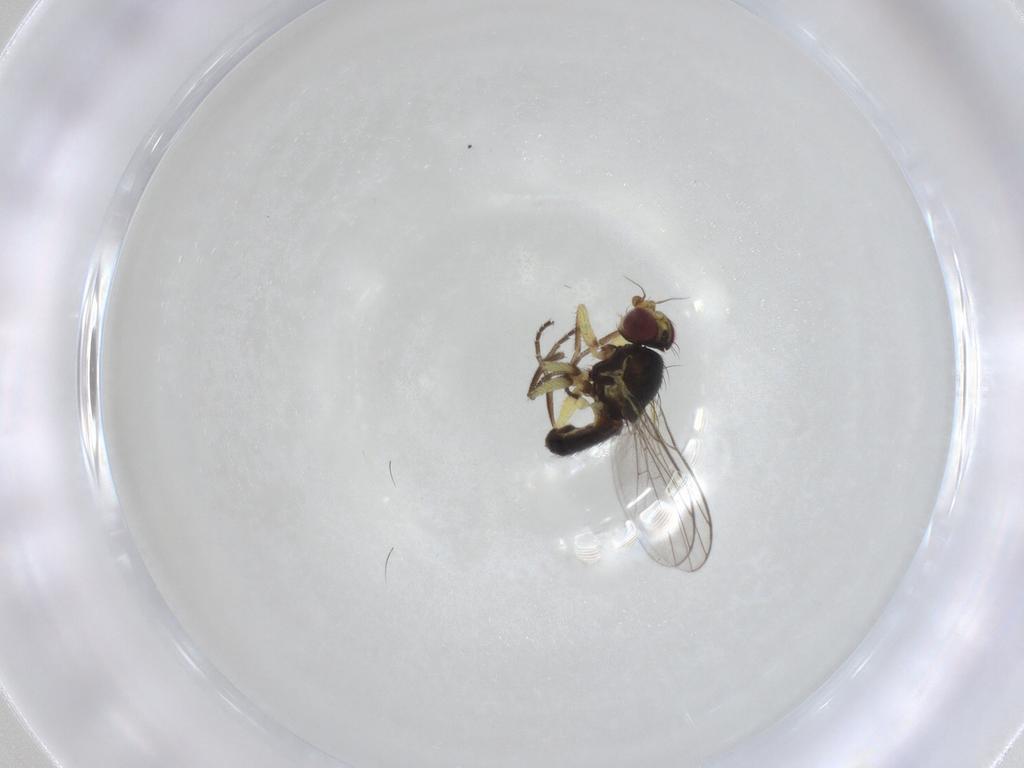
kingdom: Animalia
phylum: Arthropoda
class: Insecta
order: Diptera
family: Agromyzidae
